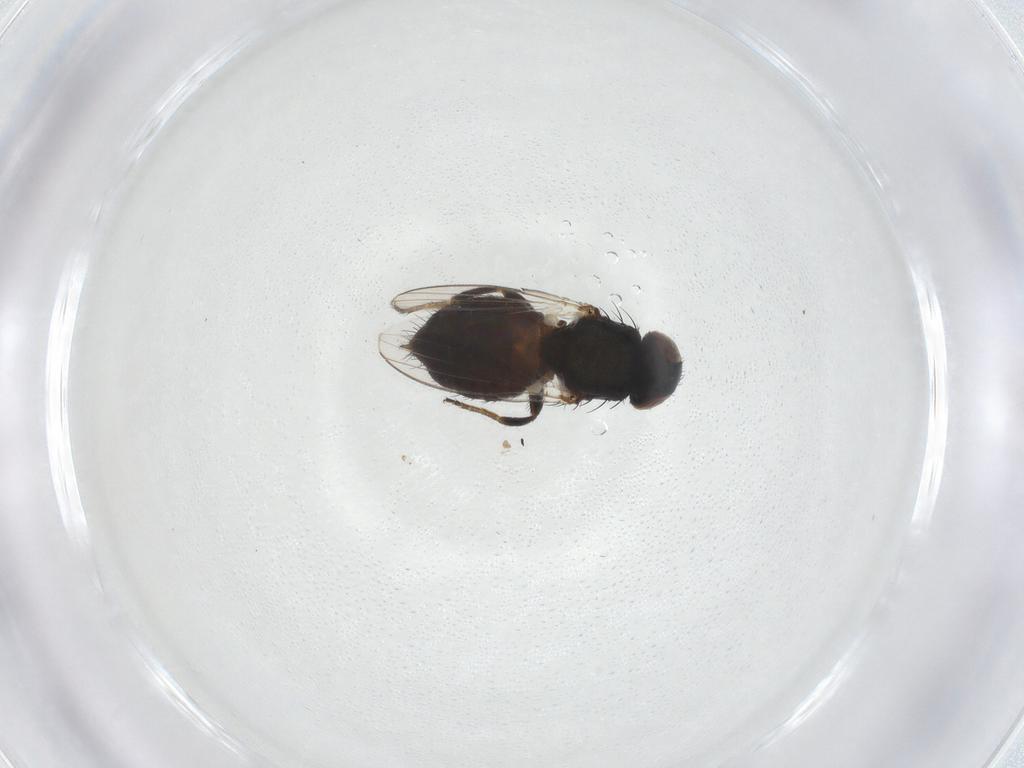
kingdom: Animalia
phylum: Arthropoda
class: Insecta
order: Diptera
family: Milichiidae
